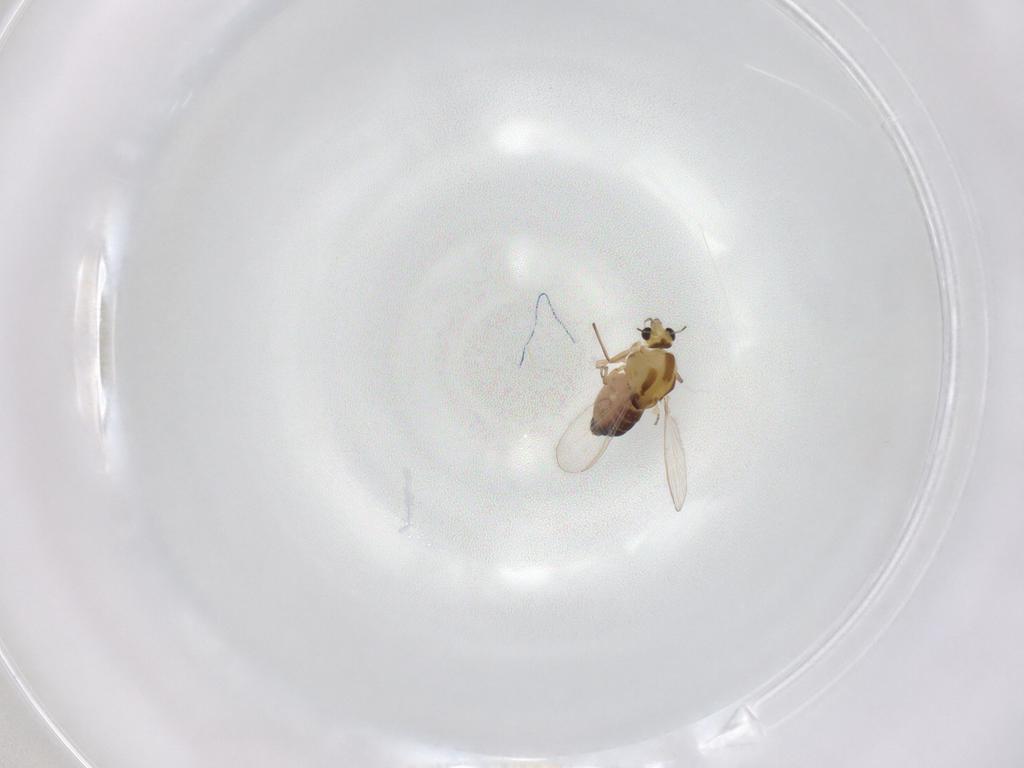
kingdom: Animalia
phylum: Arthropoda
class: Insecta
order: Diptera
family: Chironomidae
